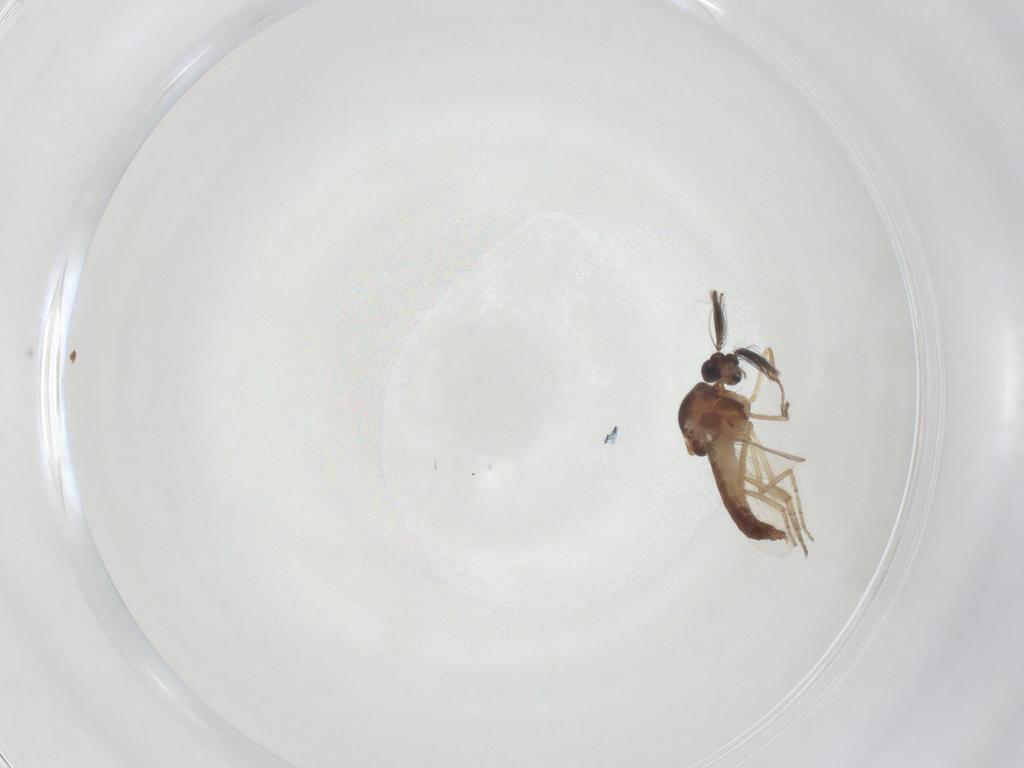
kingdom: Animalia
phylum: Arthropoda
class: Insecta
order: Diptera
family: Ceratopogonidae
